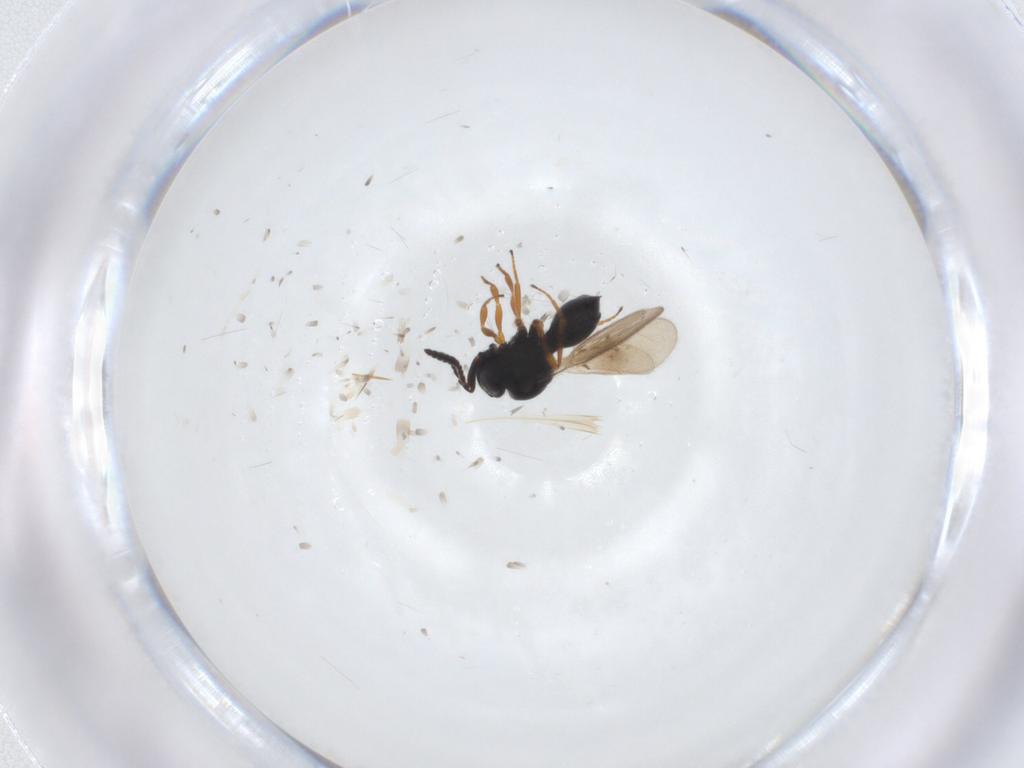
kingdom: Animalia
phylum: Arthropoda
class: Insecta
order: Hymenoptera
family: Scelionidae
